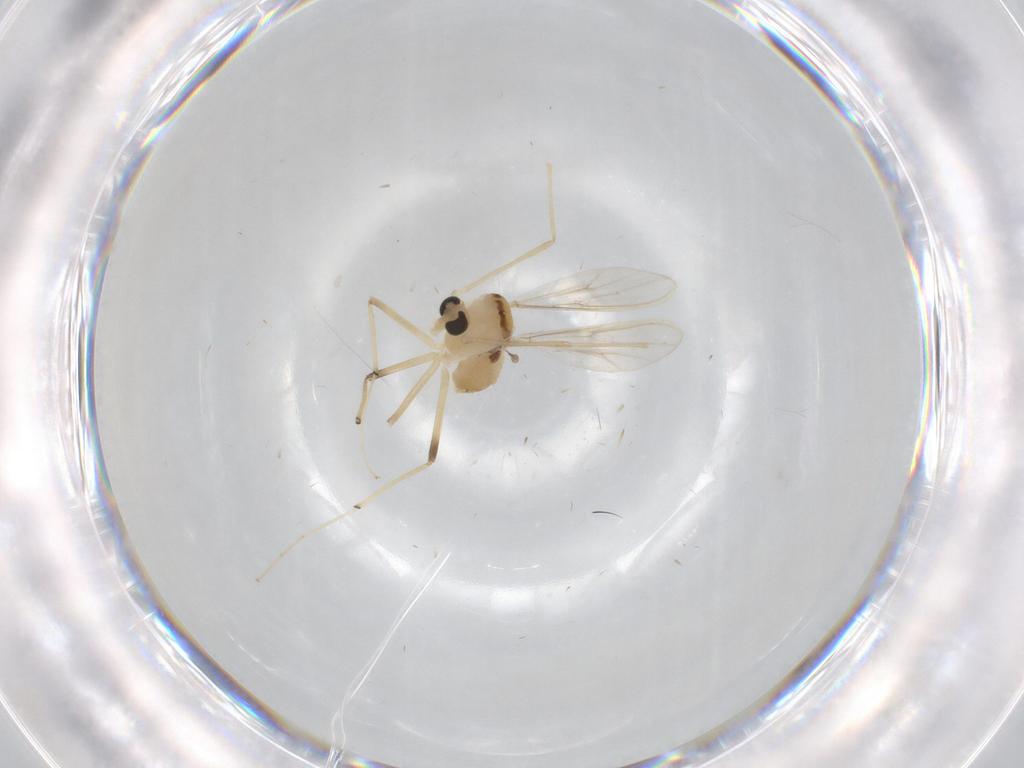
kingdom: Animalia
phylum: Arthropoda
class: Insecta
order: Diptera
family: Chironomidae
